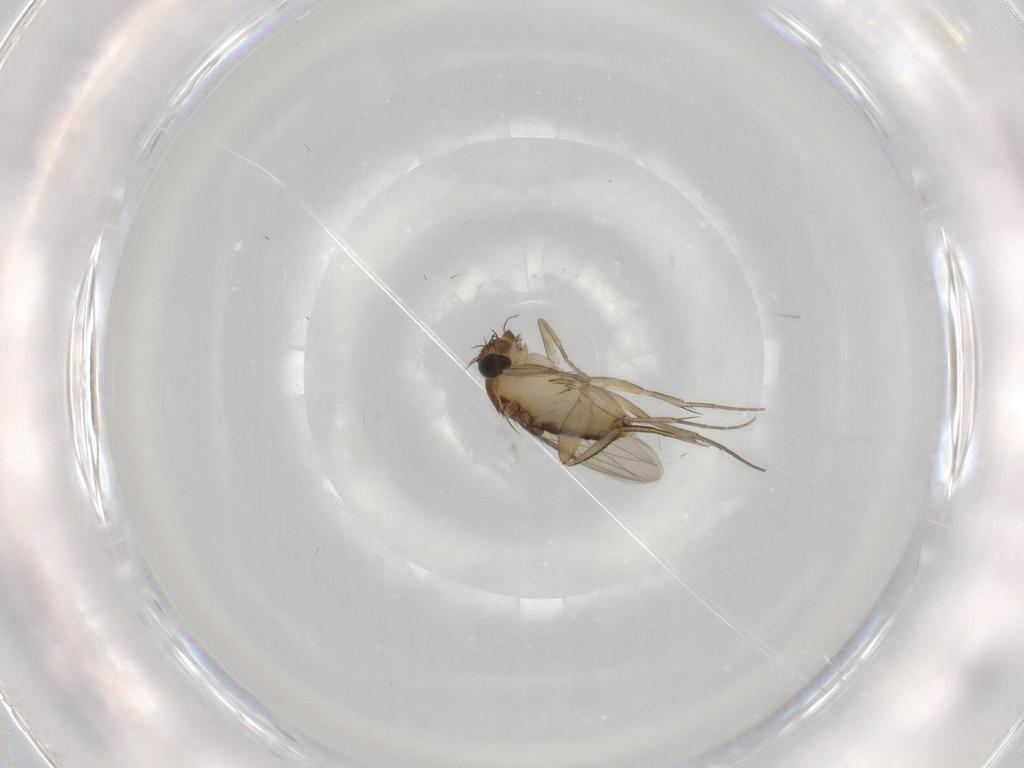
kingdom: Animalia
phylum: Arthropoda
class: Insecta
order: Diptera
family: Phoridae
